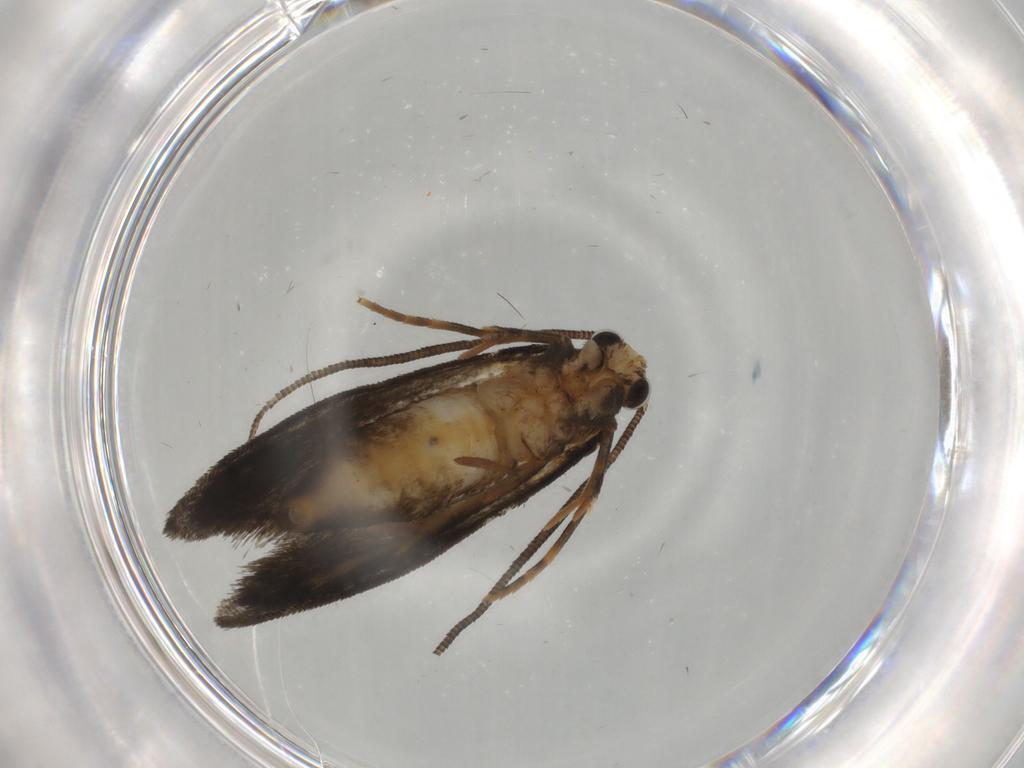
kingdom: Animalia
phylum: Arthropoda
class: Insecta
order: Lepidoptera
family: Tineidae
